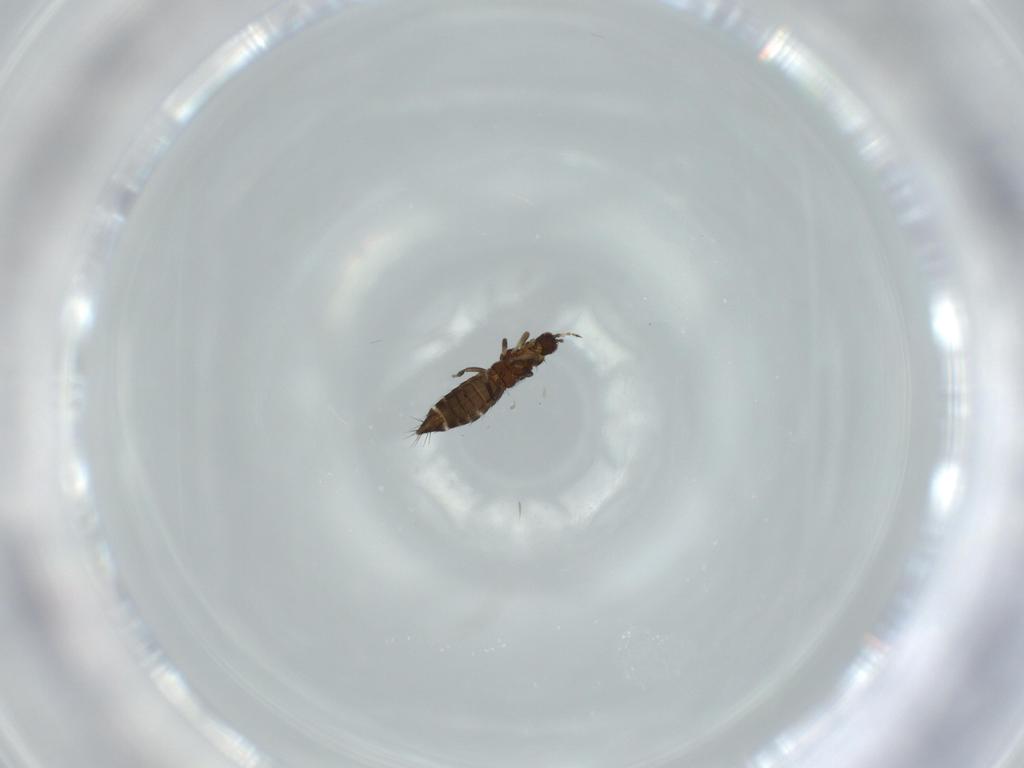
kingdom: Animalia
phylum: Arthropoda
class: Insecta
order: Thysanoptera
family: Thripidae
